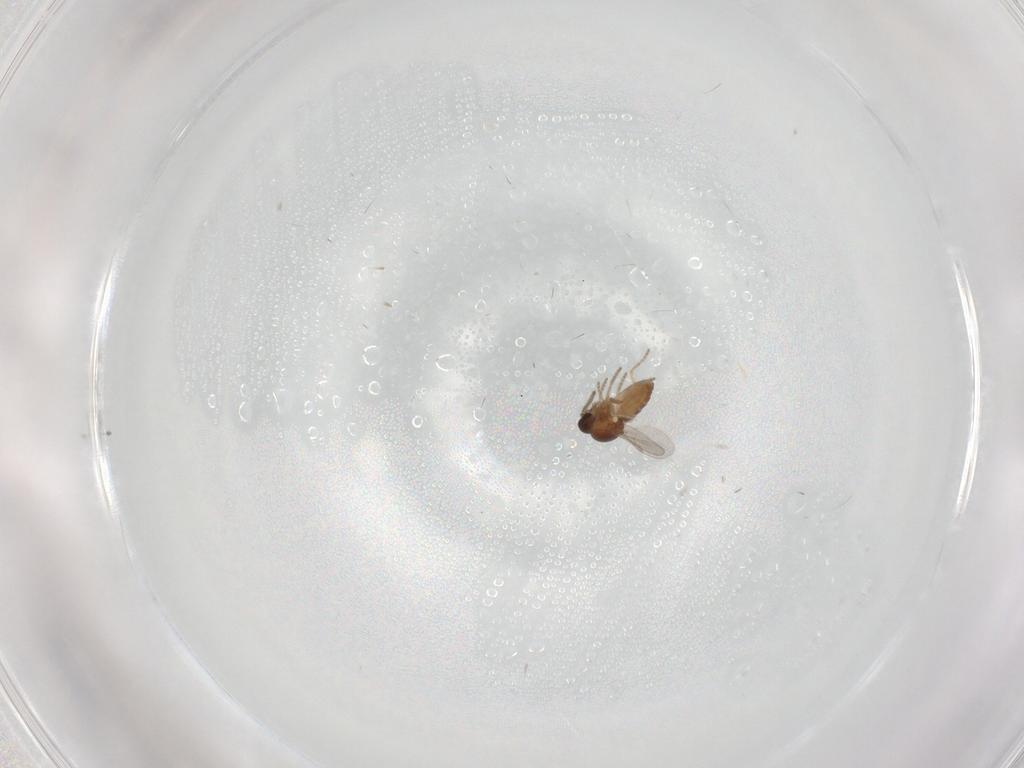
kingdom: Animalia
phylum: Arthropoda
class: Insecta
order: Diptera
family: Ceratopogonidae
